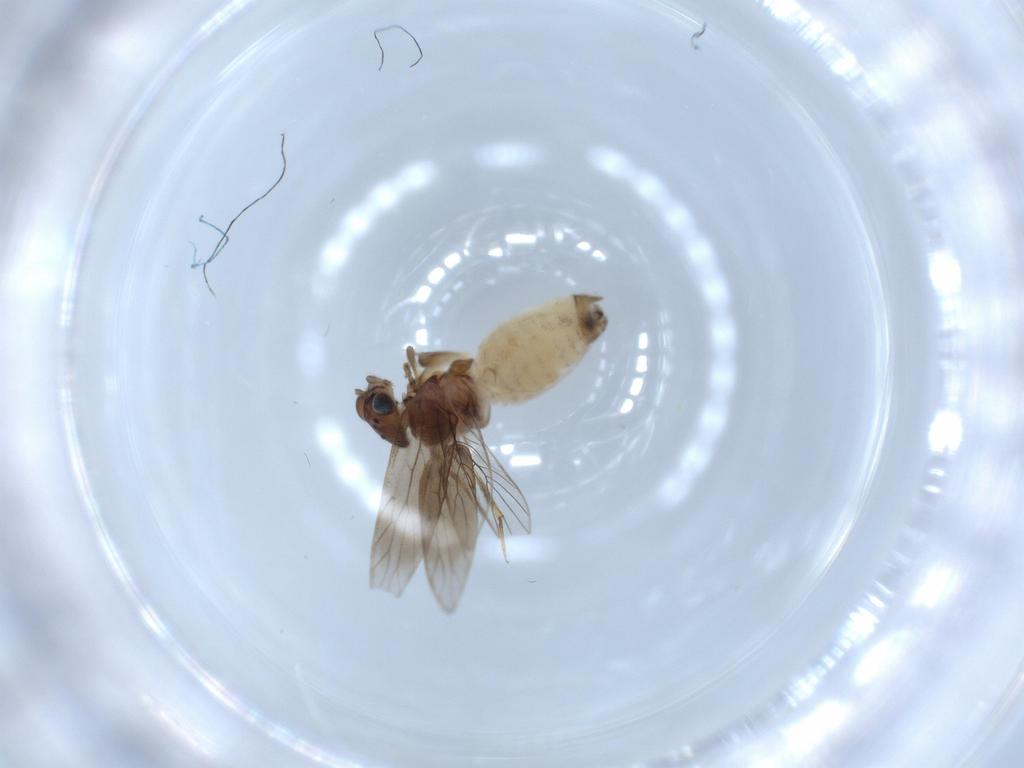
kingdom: Animalia
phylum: Arthropoda
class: Insecta
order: Psocodea
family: Lepidopsocidae
